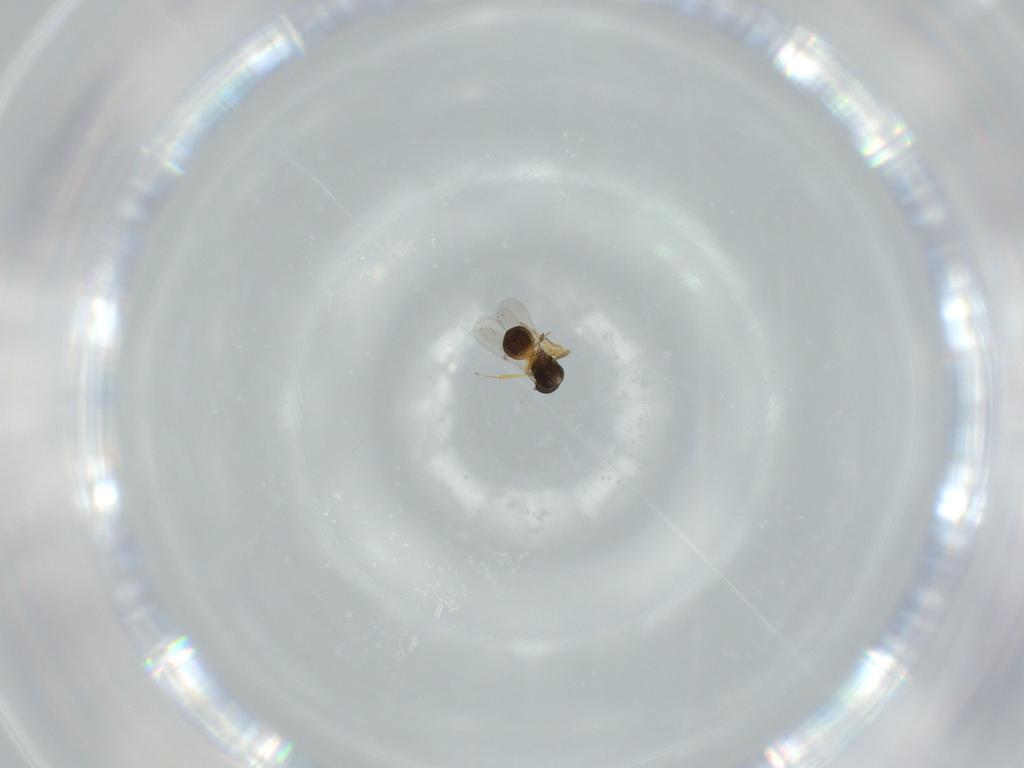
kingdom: Animalia
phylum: Arthropoda
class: Insecta
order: Hymenoptera
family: Scelionidae
